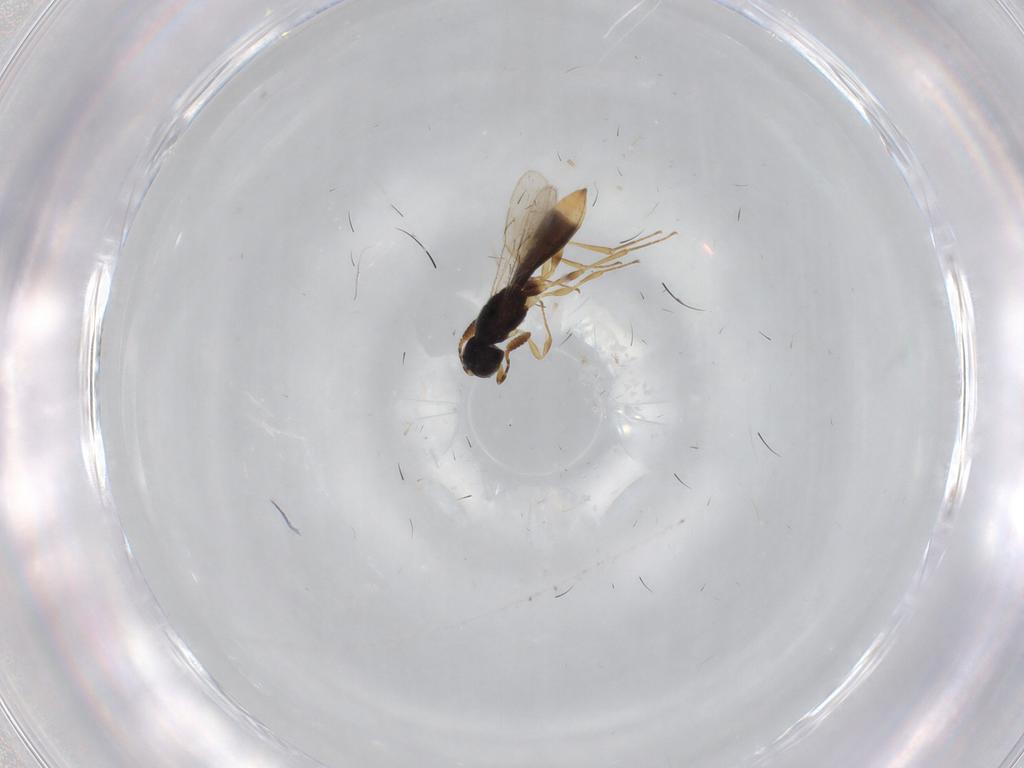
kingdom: Animalia
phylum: Arthropoda
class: Insecta
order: Hymenoptera
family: Scelionidae
